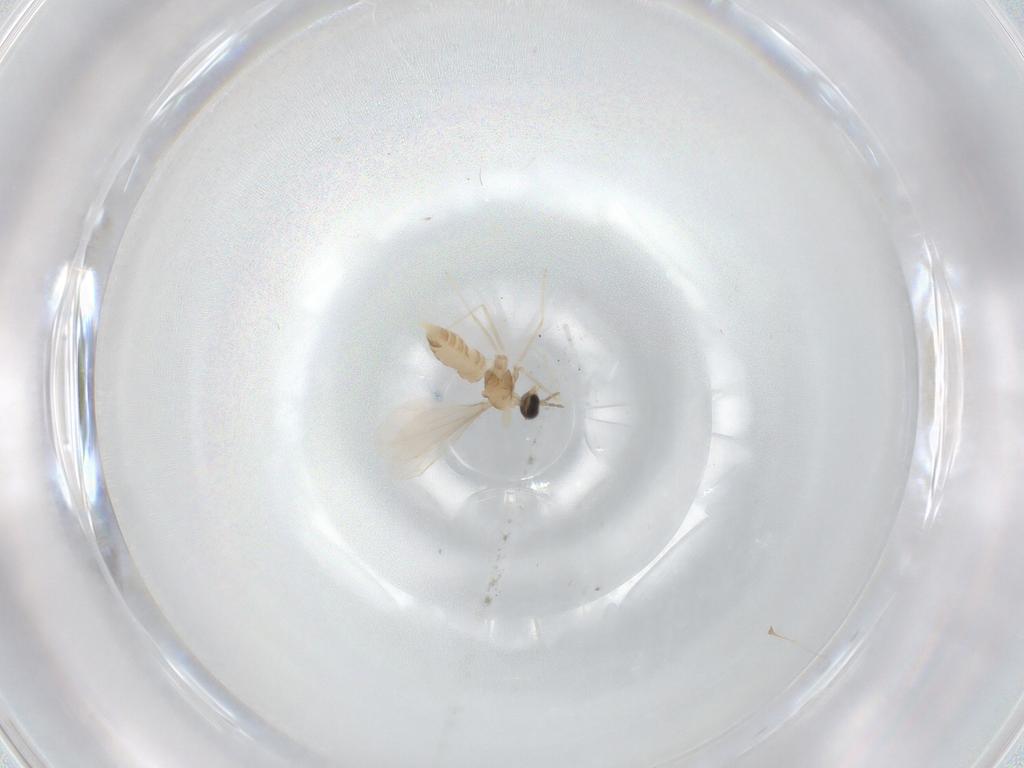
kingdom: Animalia
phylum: Arthropoda
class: Insecta
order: Diptera
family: Cecidomyiidae
